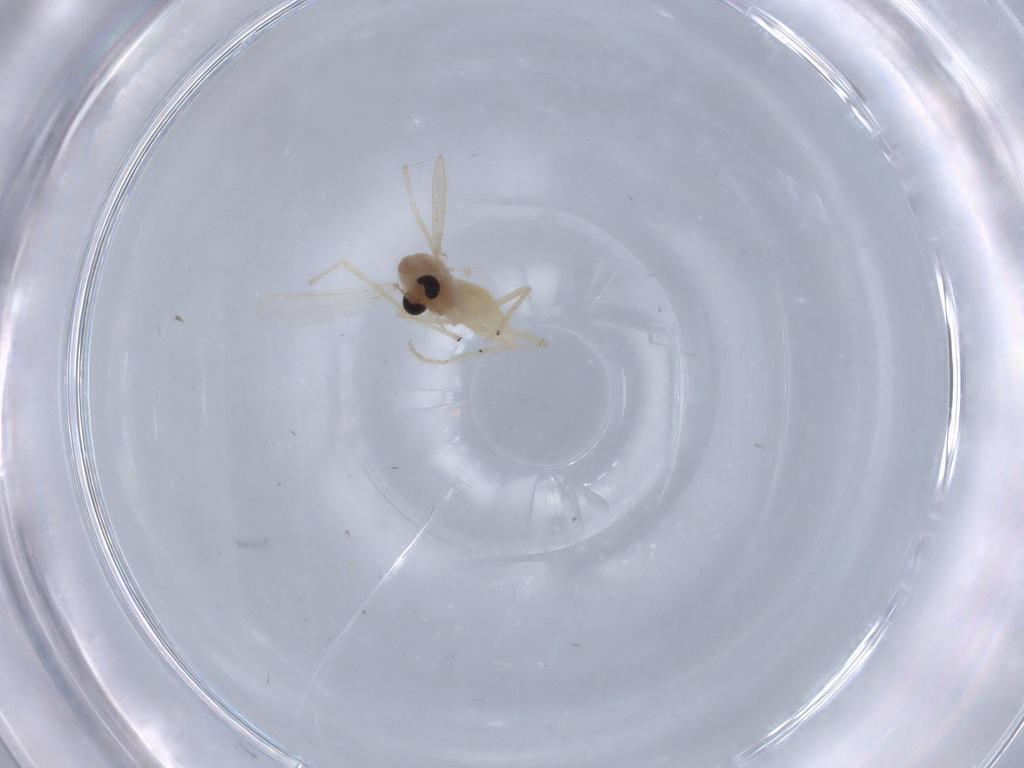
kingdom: Animalia
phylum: Arthropoda
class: Insecta
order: Diptera
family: Chironomidae
